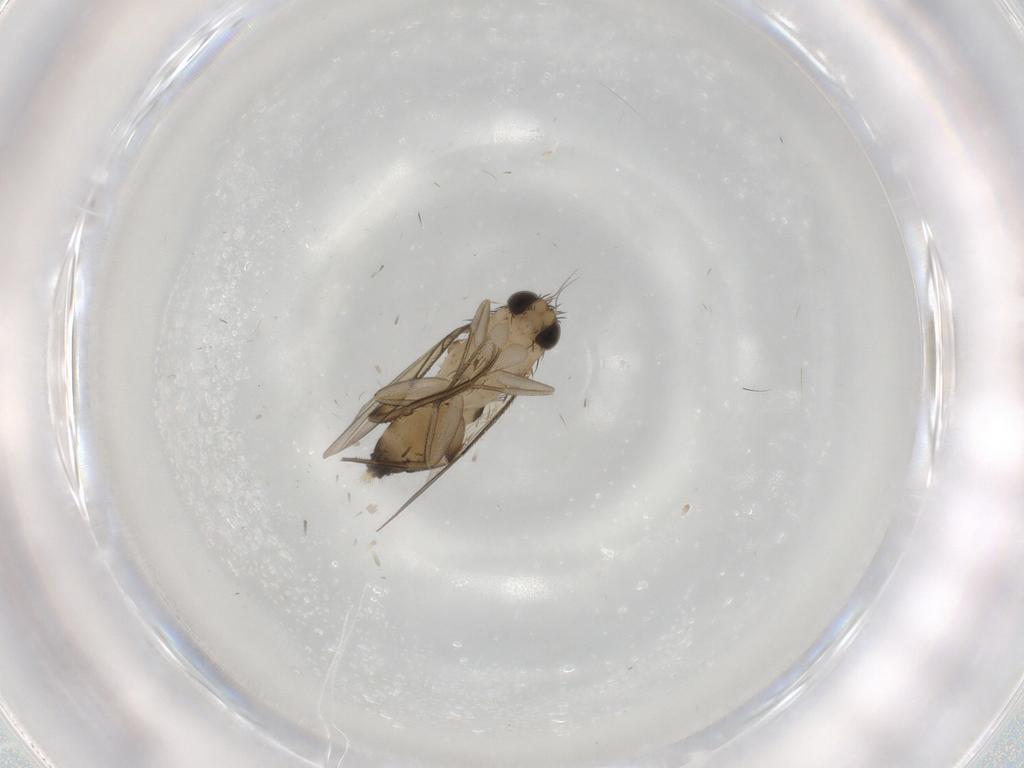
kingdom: Animalia
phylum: Arthropoda
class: Insecta
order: Diptera
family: Phoridae
